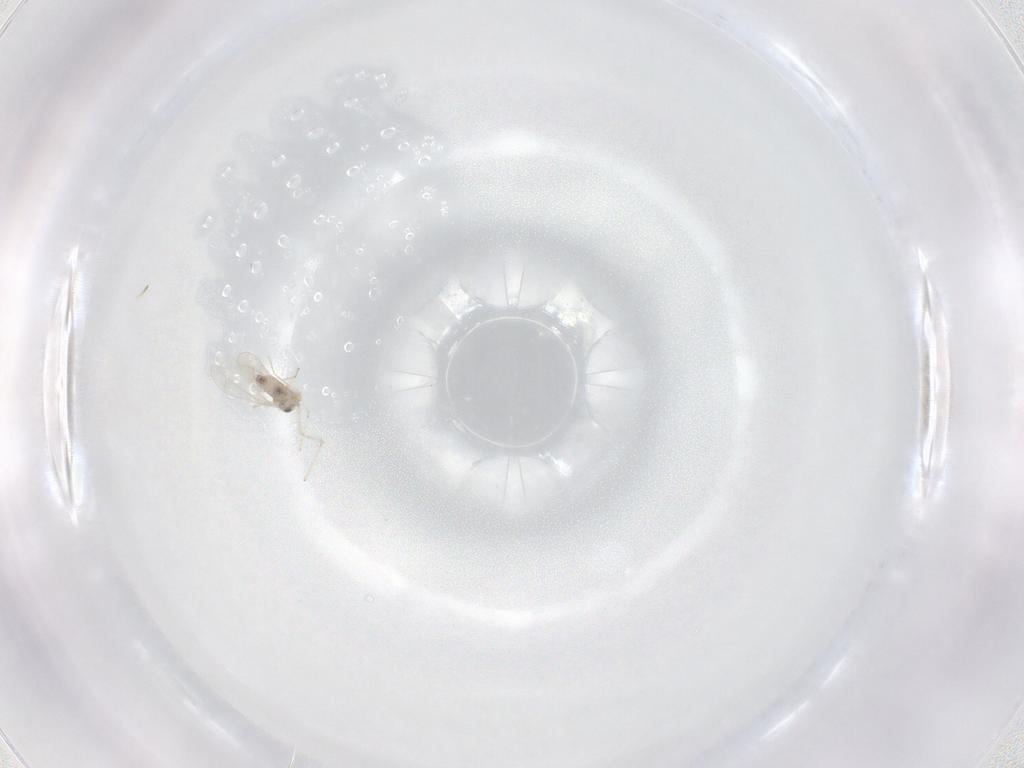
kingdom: Animalia
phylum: Arthropoda
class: Insecta
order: Diptera
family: Cecidomyiidae
